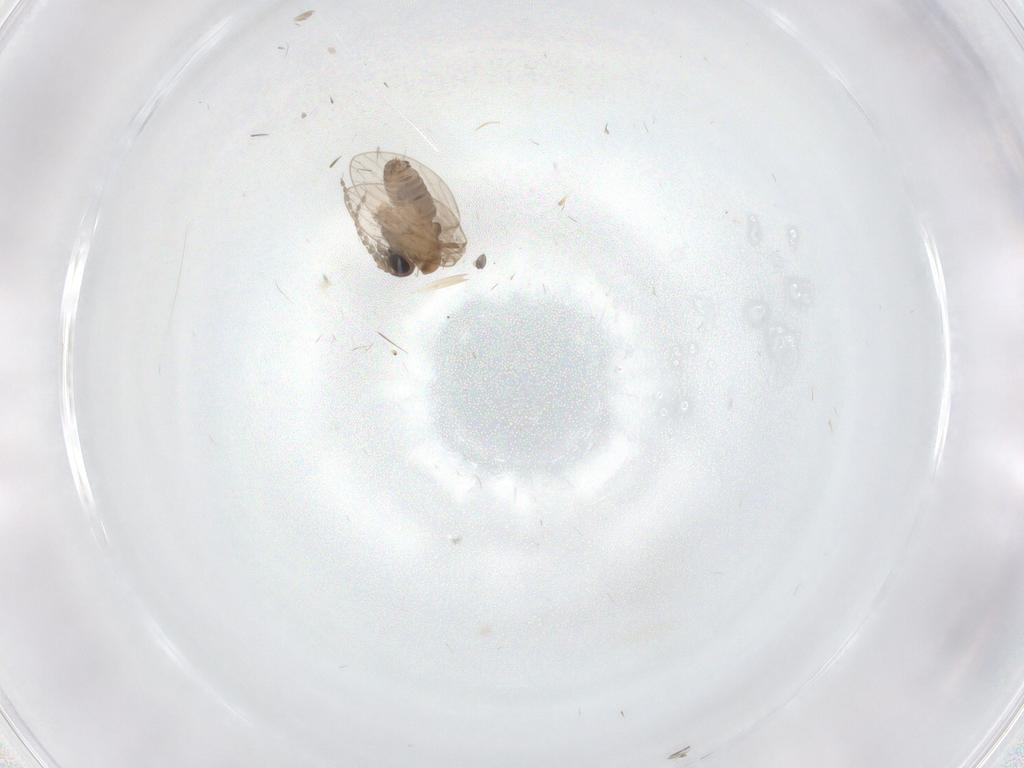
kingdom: Animalia
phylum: Arthropoda
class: Insecta
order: Diptera
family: Psychodidae
